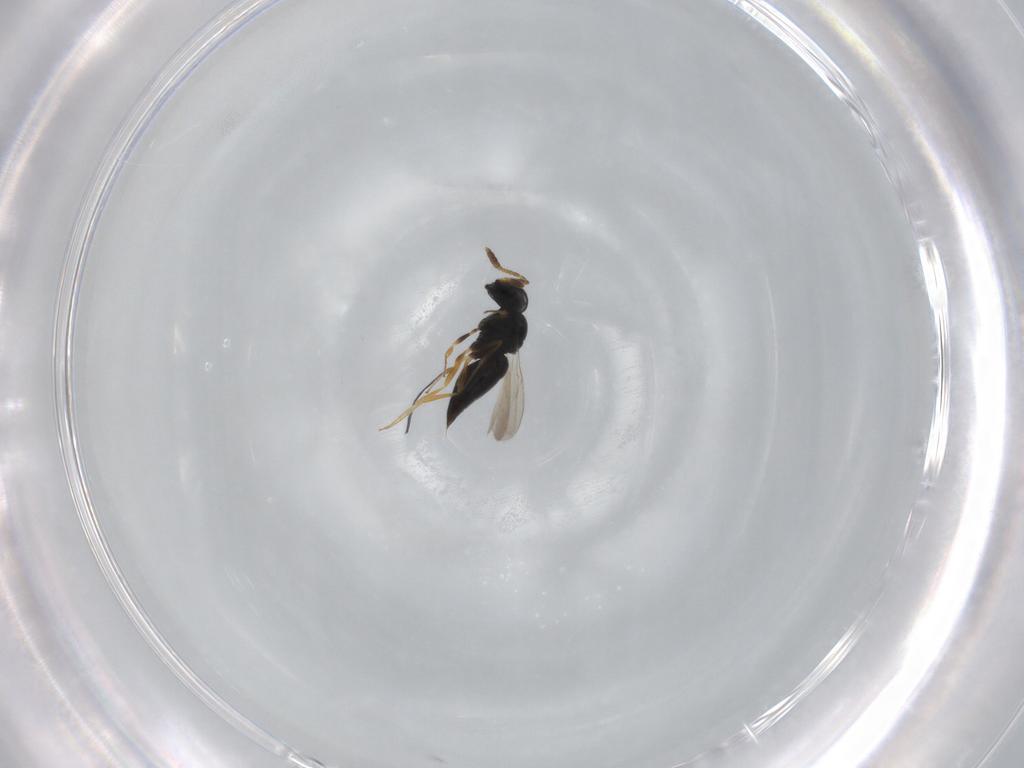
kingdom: Animalia
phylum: Arthropoda
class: Insecta
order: Hymenoptera
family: Scelionidae
